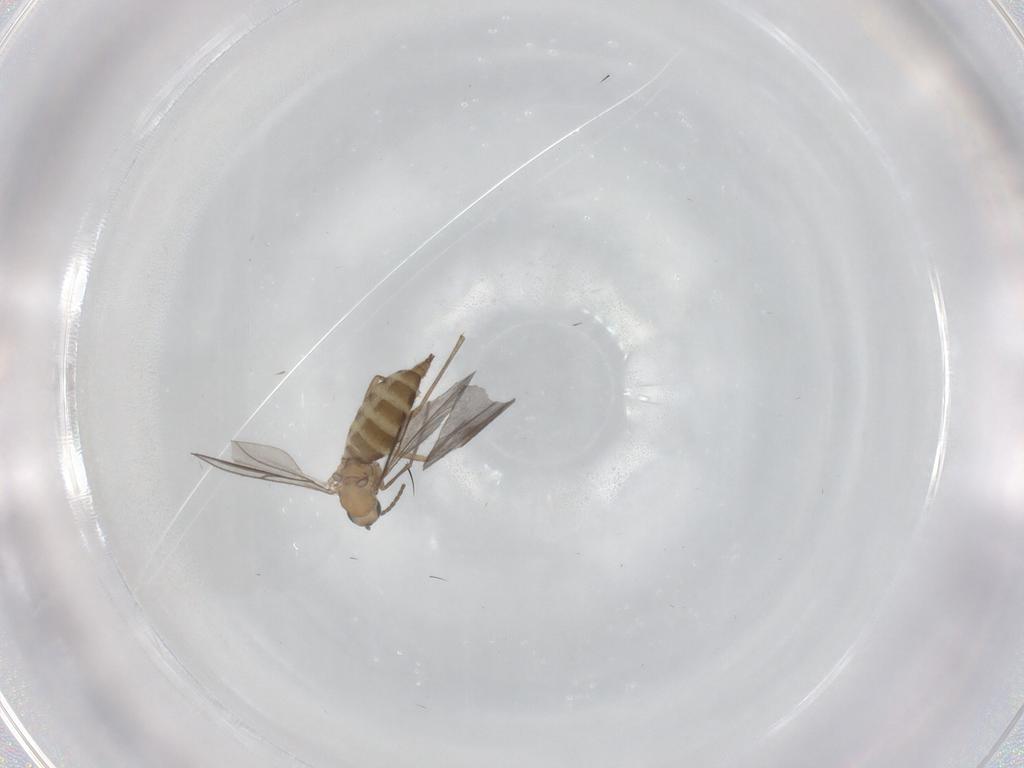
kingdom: Animalia
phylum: Arthropoda
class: Insecta
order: Diptera
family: Sciaridae
